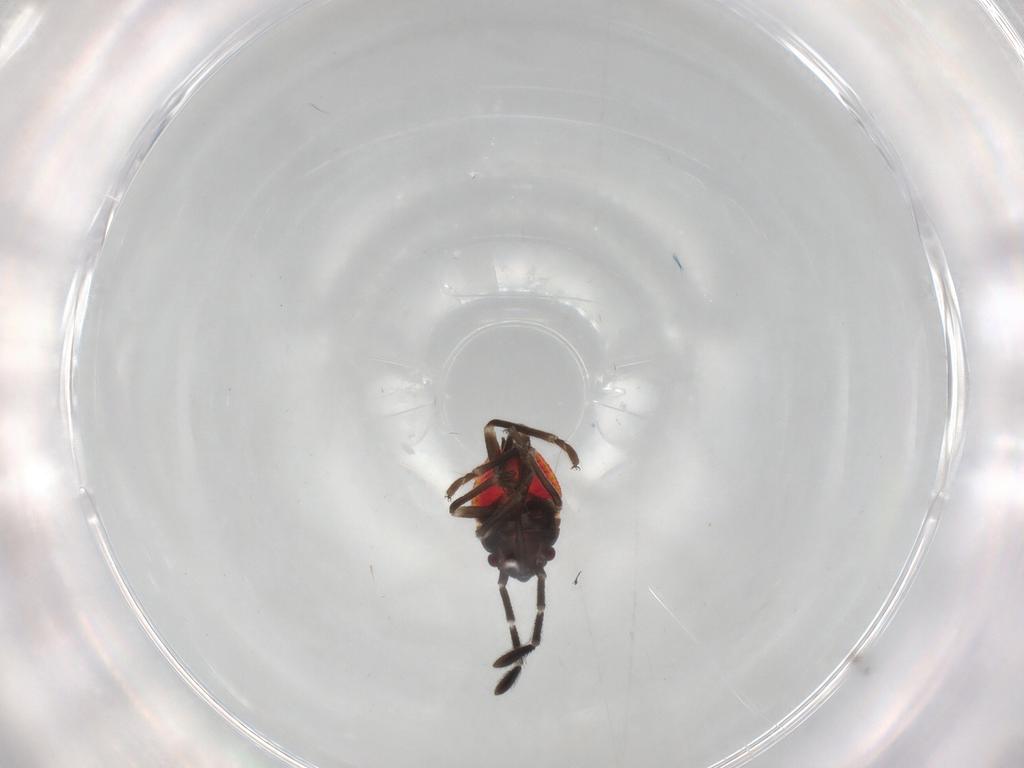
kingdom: Animalia
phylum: Arthropoda
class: Insecta
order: Hemiptera
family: Lygaeidae
